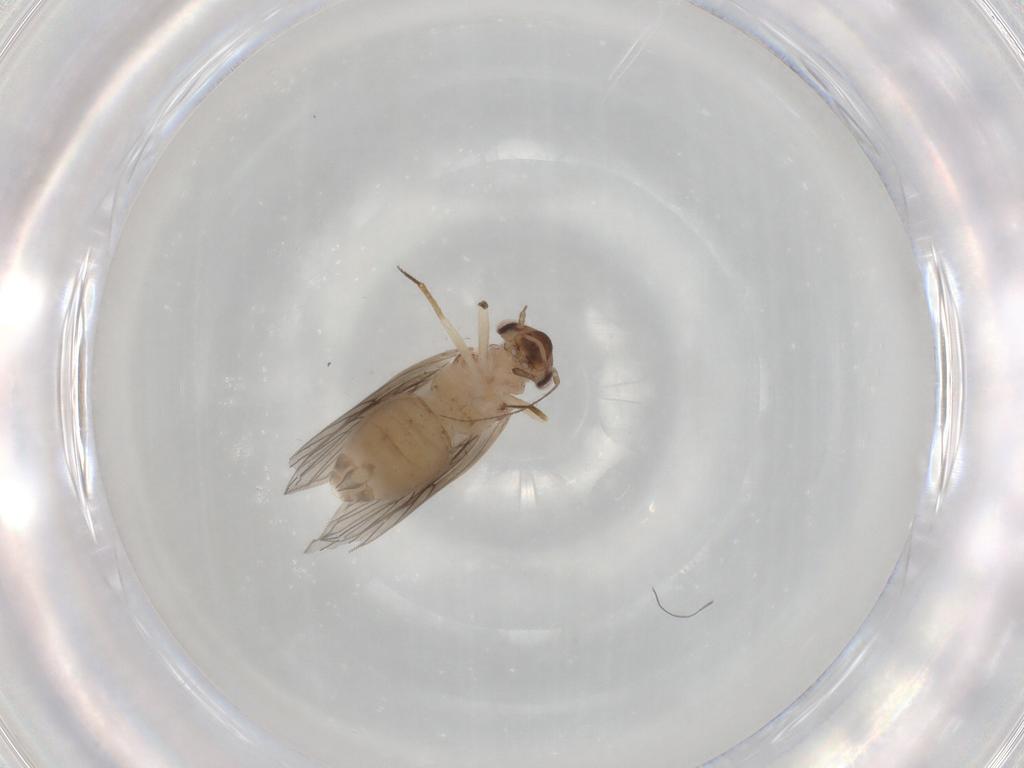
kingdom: Animalia
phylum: Arthropoda
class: Insecta
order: Psocodea
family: Lepidopsocidae
